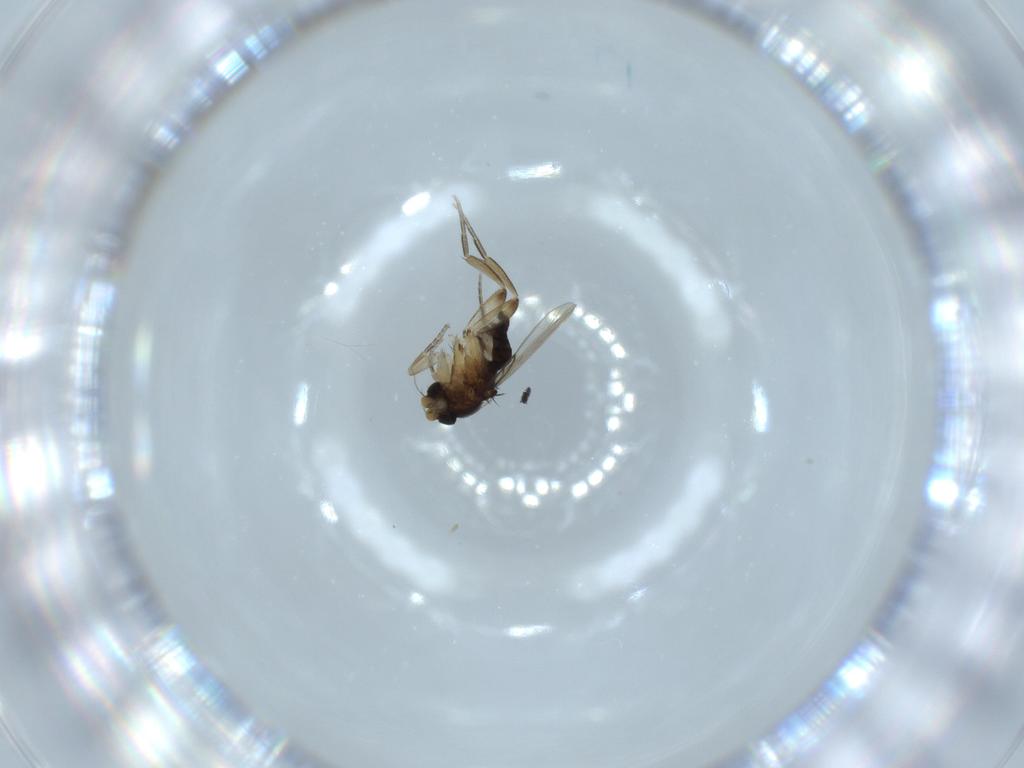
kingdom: Animalia
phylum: Arthropoda
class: Insecta
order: Diptera
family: Phoridae
